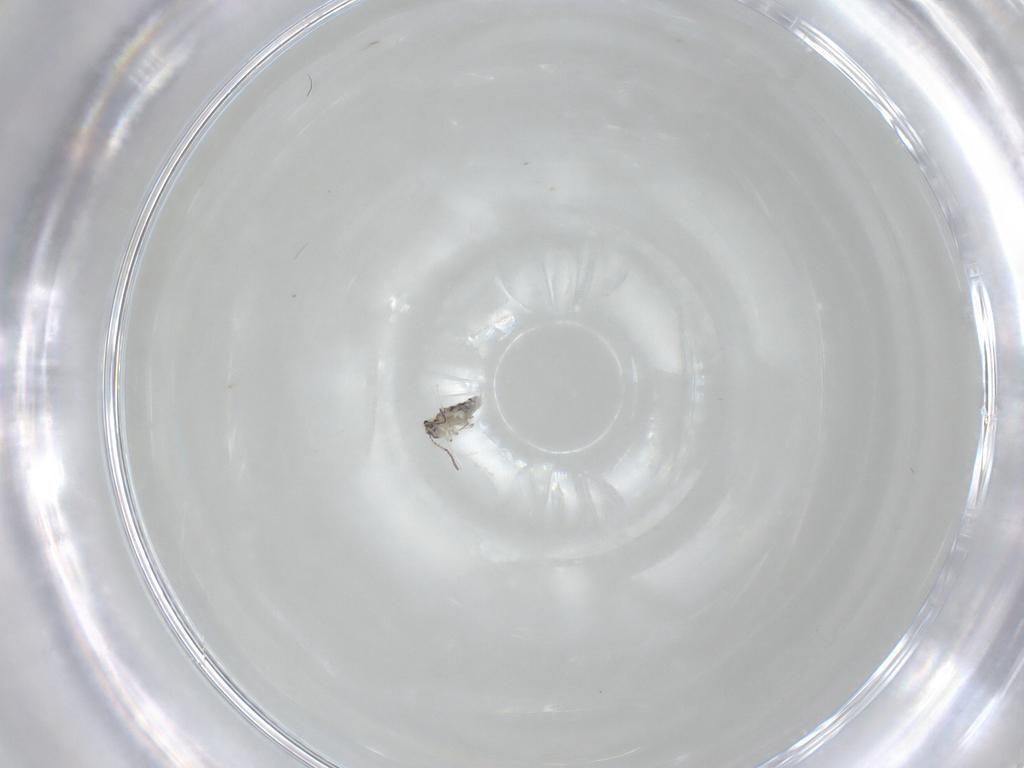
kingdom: Animalia
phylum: Arthropoda
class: Collembola
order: Symphypleona
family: Bourletiellidae
